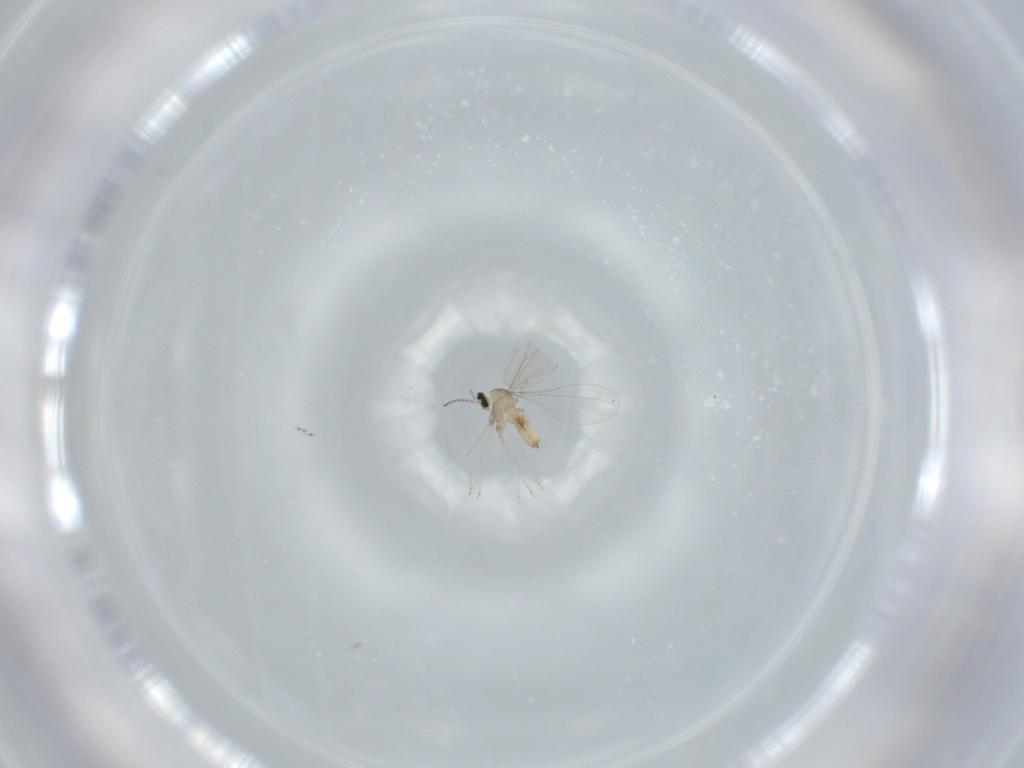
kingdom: Animalia
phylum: Arthropoda
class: Insecta
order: Diptera
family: Cecidomyiidae
